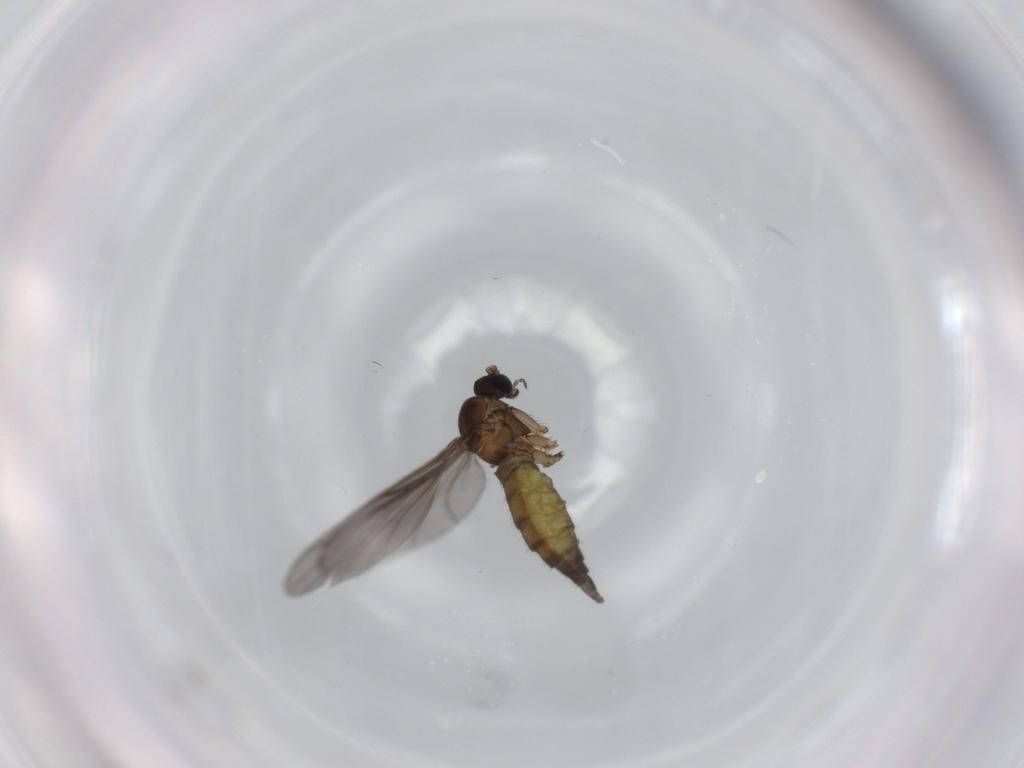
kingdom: Animalia
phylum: Arthropoda
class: Insecta
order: Diptera
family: Sciaridae
